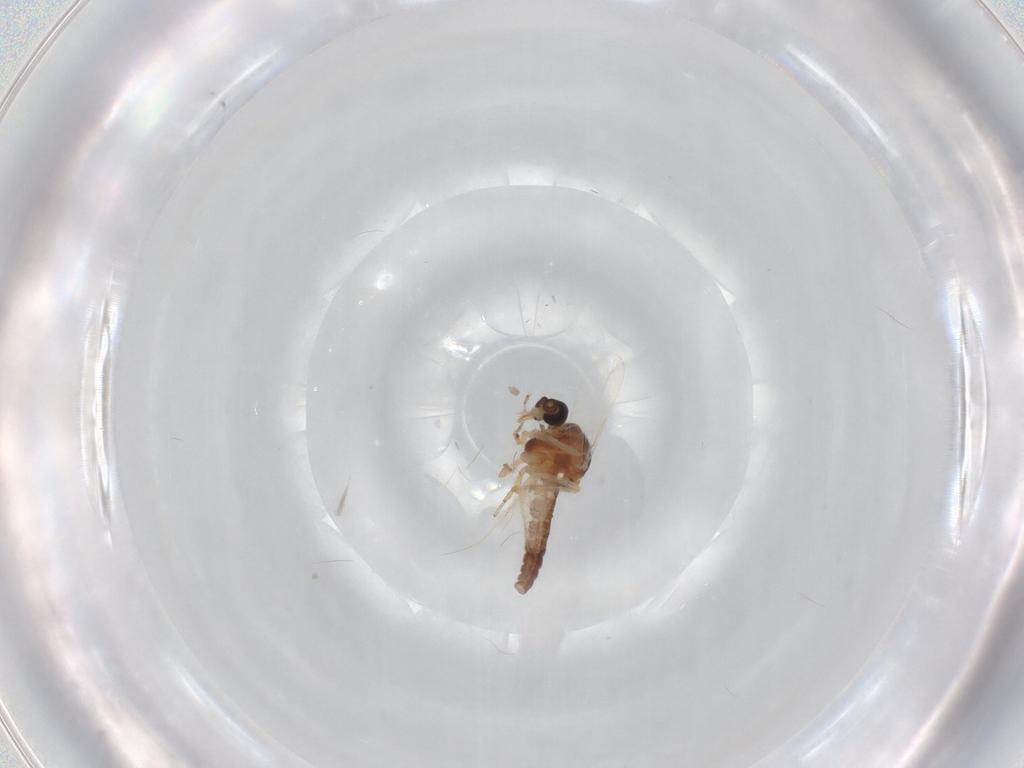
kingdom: Animalia
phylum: Arthropoda
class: Insecta
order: Diptera
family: Ceratopogonidae
